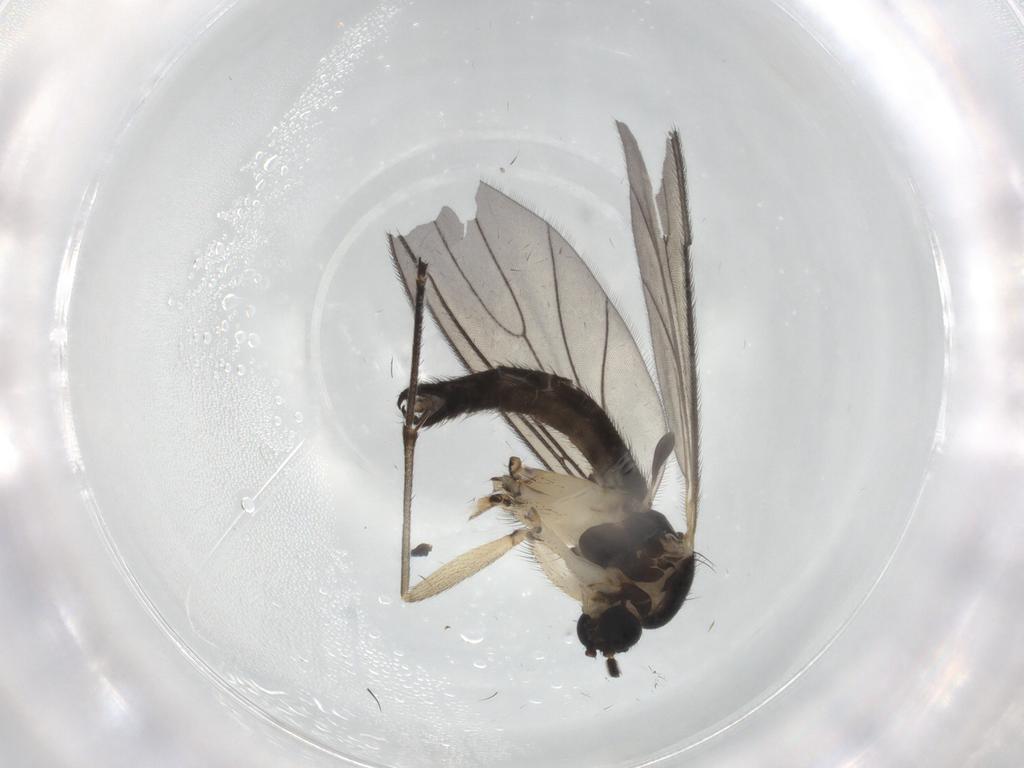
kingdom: Animalia
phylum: Arthropoda
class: Insecta
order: Diptera
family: Sciaridae
